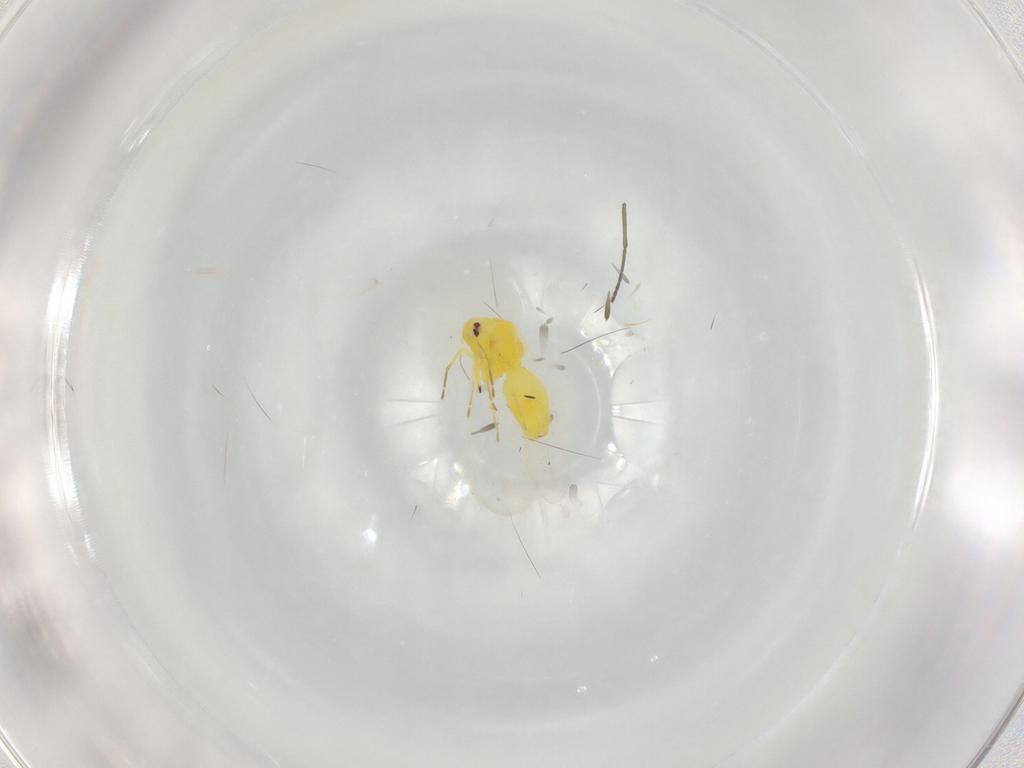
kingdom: Animalia
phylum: Arthropoda
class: Insecta
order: Hemiptera
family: Aleyrodidae
